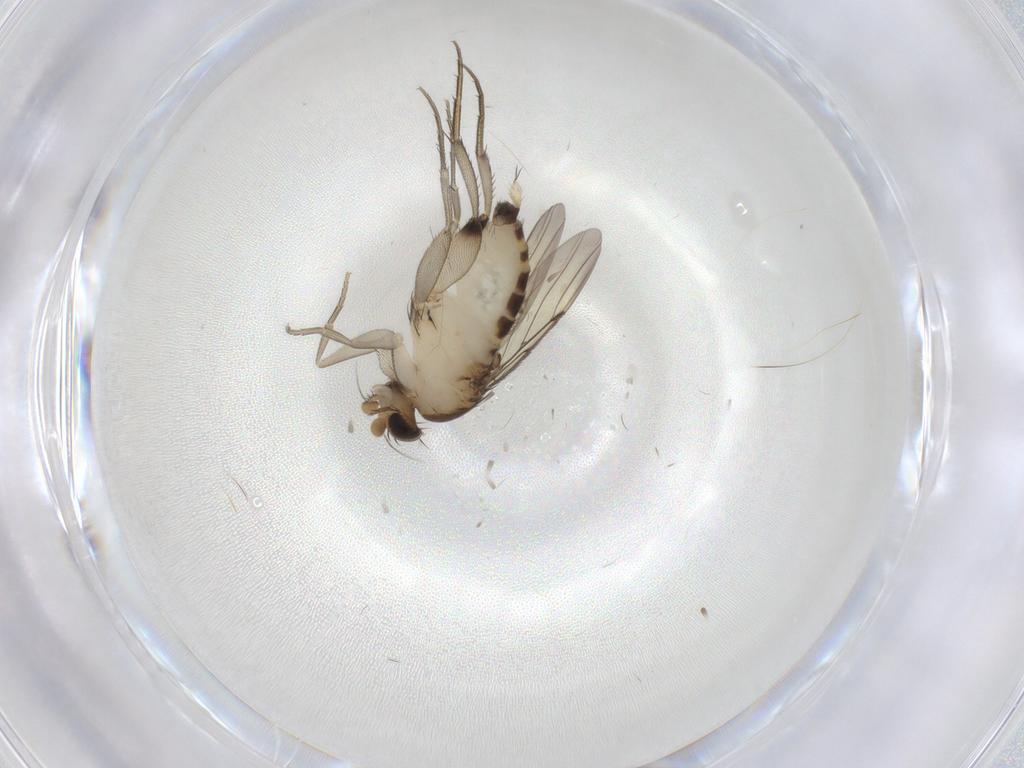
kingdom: Animalia
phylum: Arthropoda
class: Insecta
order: Diptera
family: Phoridae
